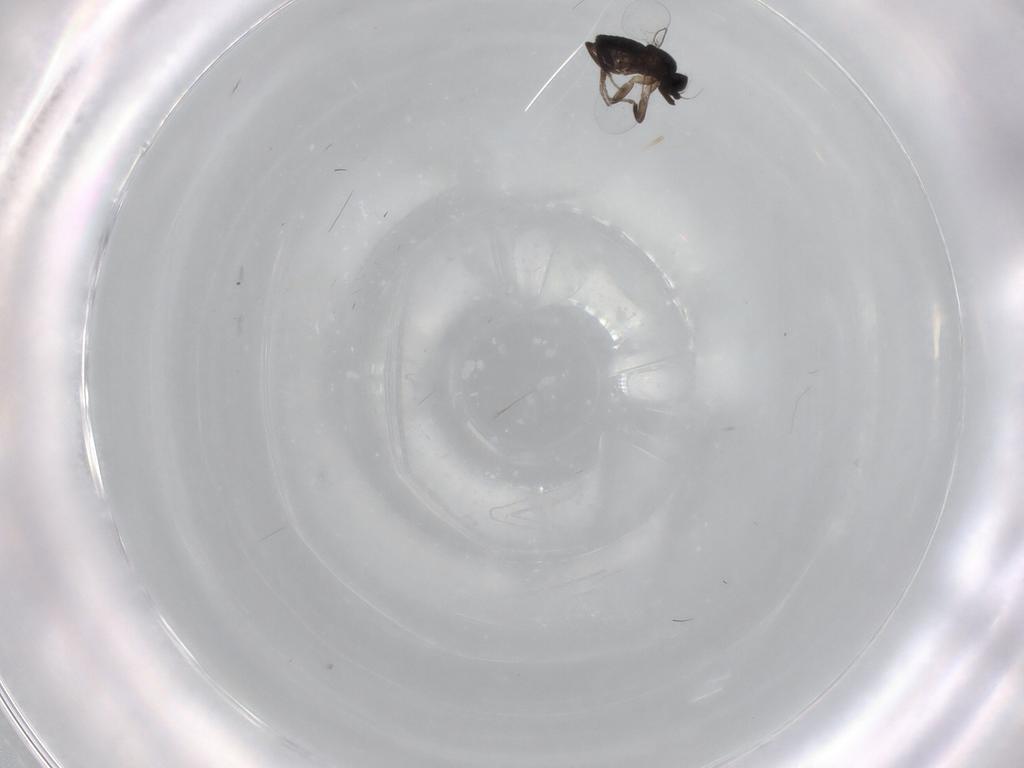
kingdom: Animalia
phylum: Arthropoda
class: Insecta
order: Diptera
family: Phoridae
